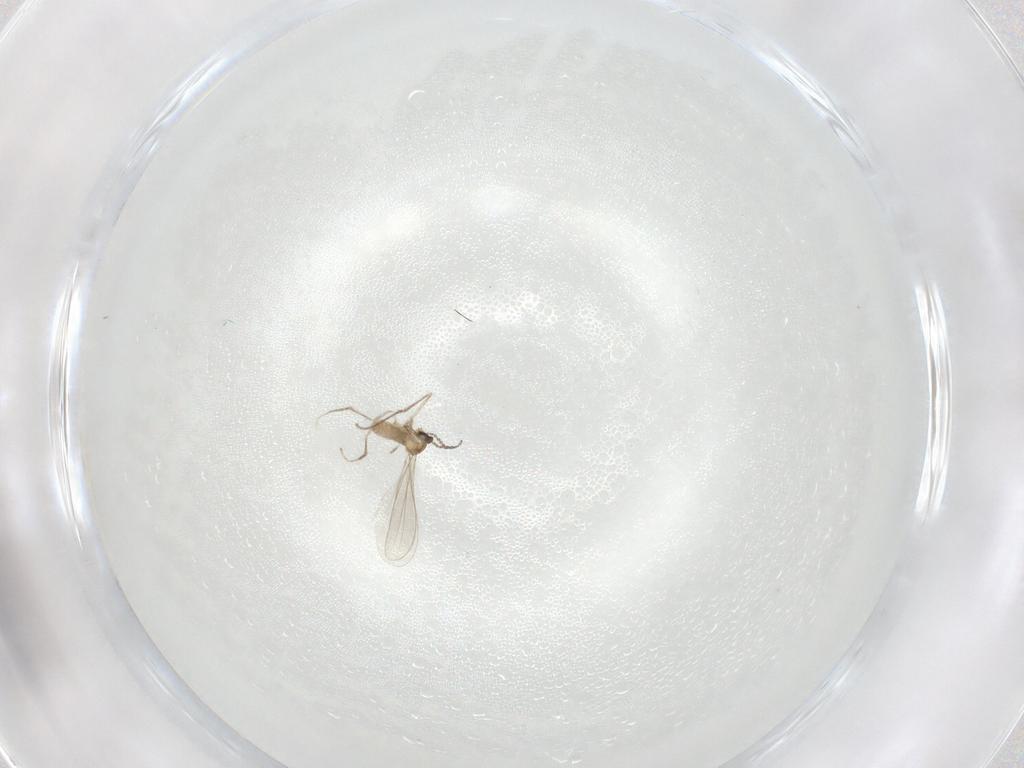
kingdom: Animalia
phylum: Arthropoda
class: Insecta
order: Diptera
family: Cecidomyiidae
